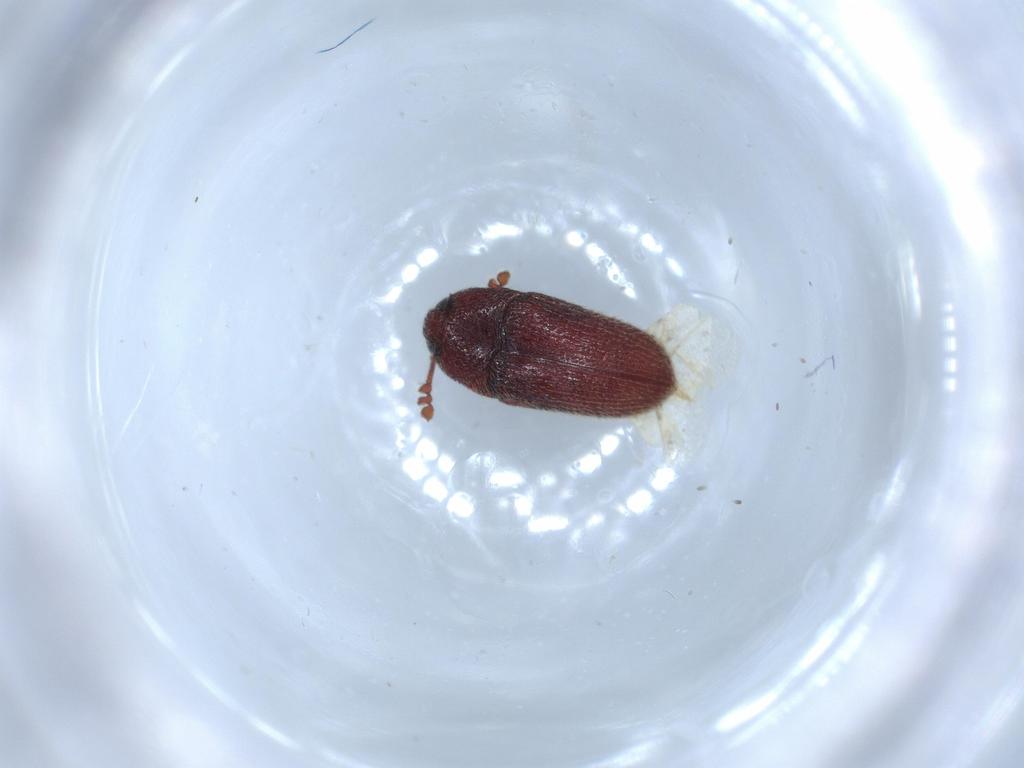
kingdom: Animalia
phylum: Arthropoda
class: Insecta
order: Coleoptera
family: Throscidae
